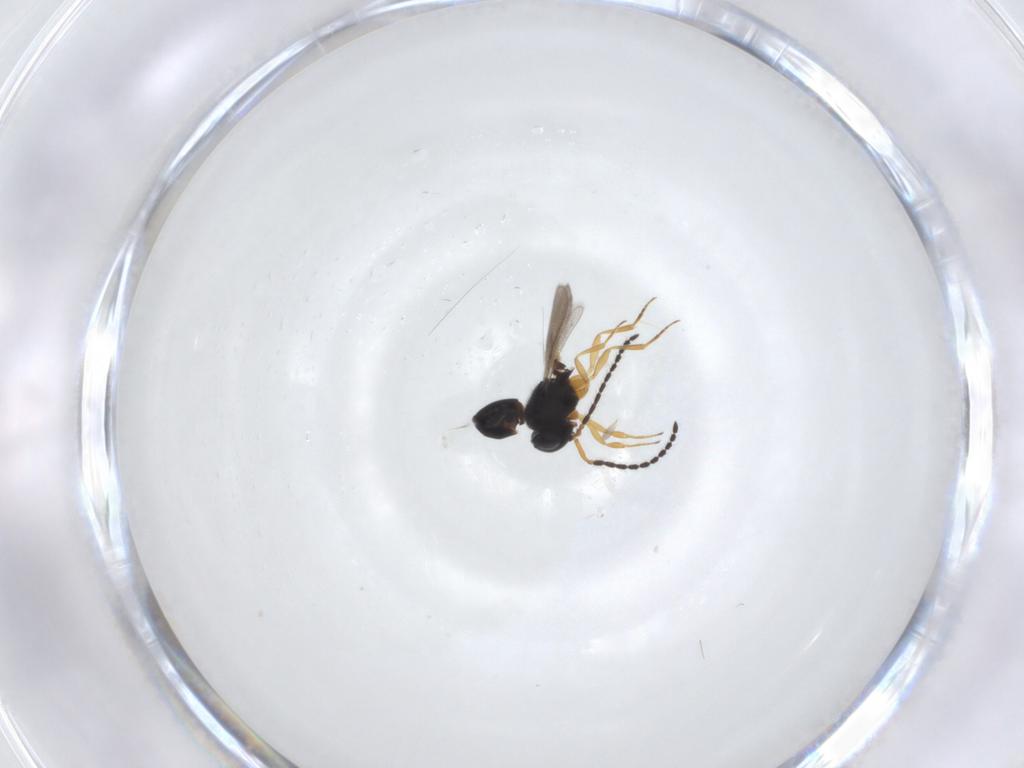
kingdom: Animalia
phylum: Arthropoda
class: Insecta
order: Hymenoptera
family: Scelionidae
